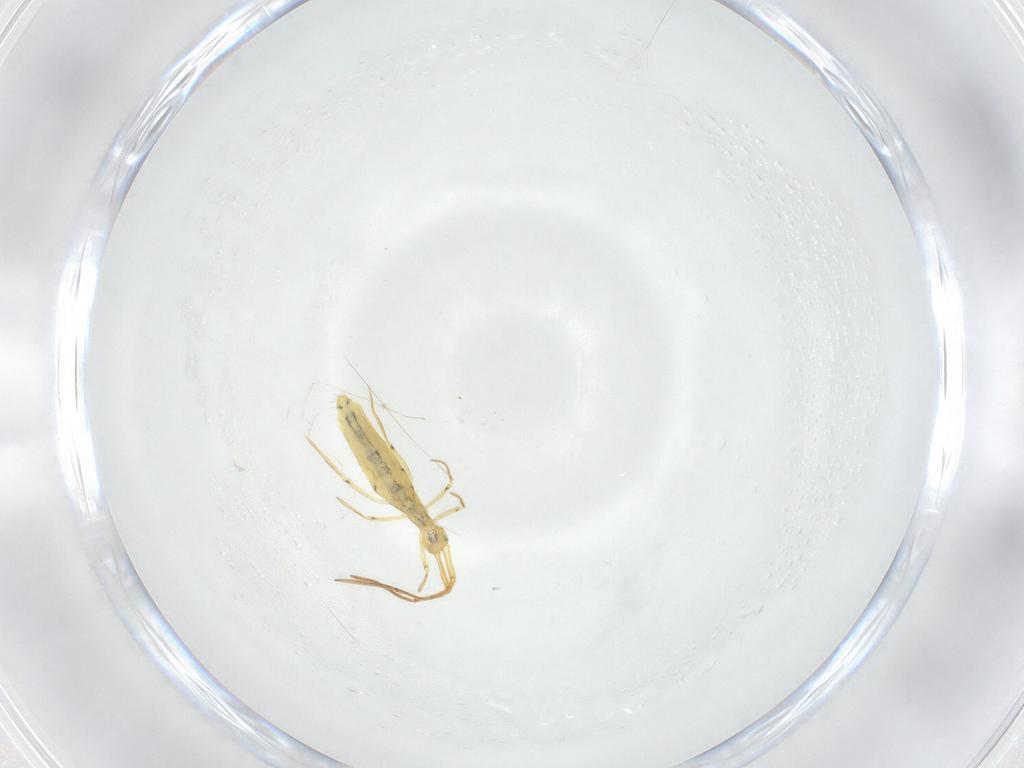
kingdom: Animalia
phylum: Arthropoda
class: Collembola
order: Entomobryomorpha
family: Entomobryidae
